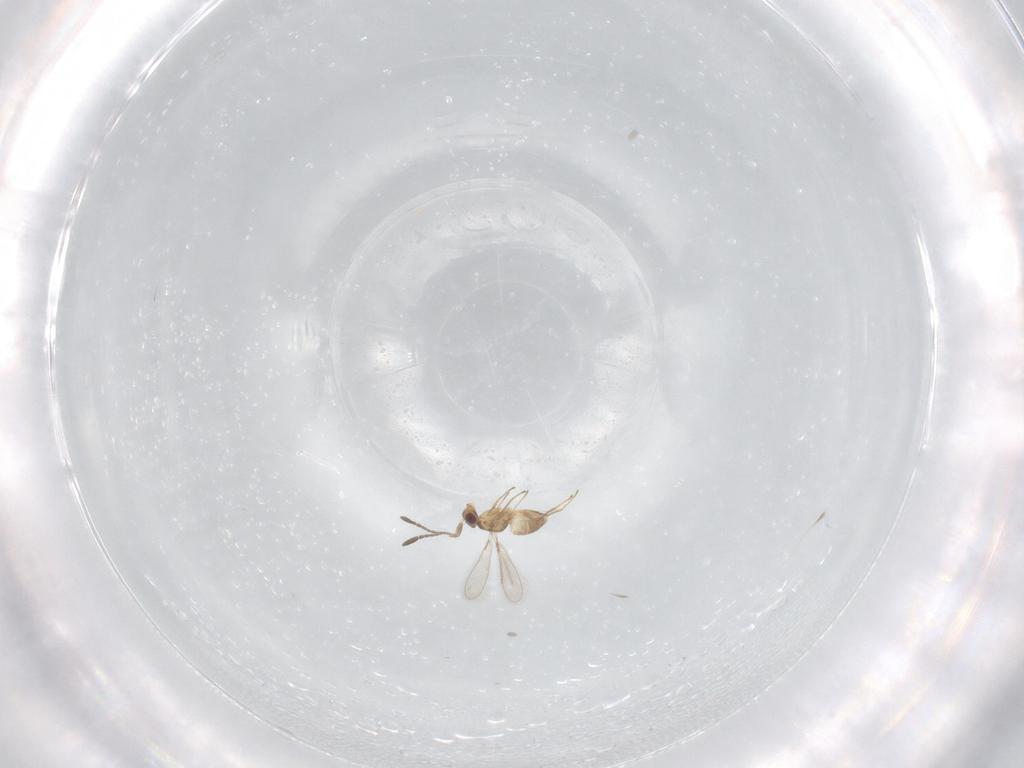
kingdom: Animalia
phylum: Arthropoda
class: Insecta
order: Hymenoptera
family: Mymaridae
